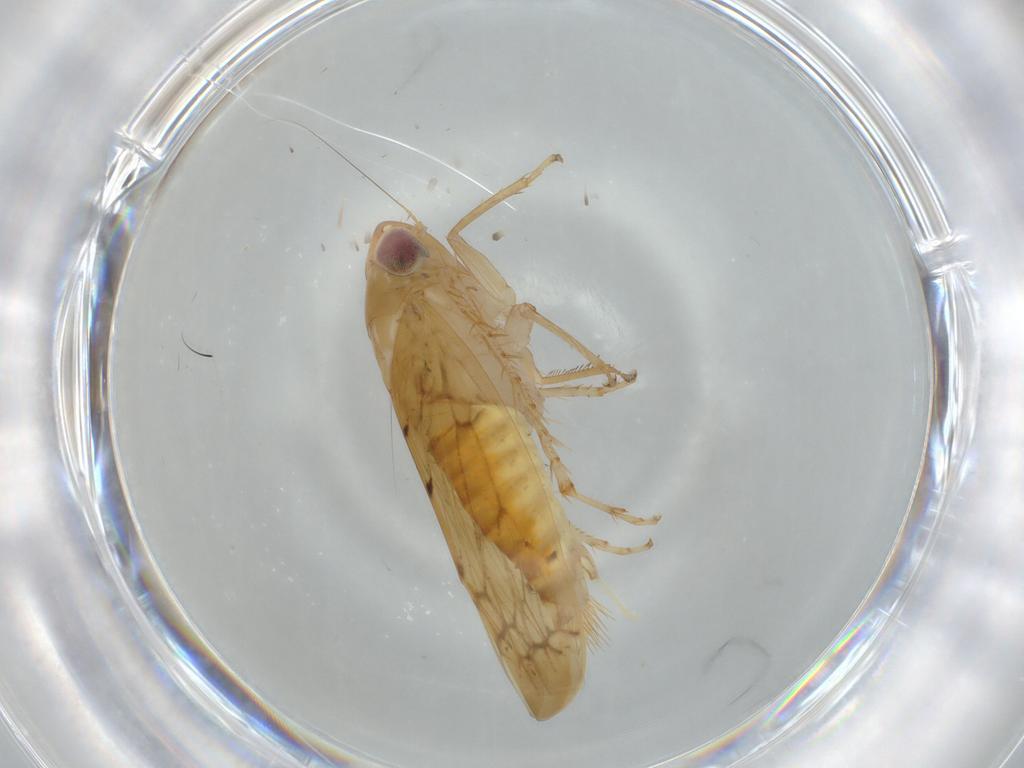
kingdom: Animalia
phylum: Arthropoda
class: Insecta
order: Hemiptera
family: Cicadellidae
